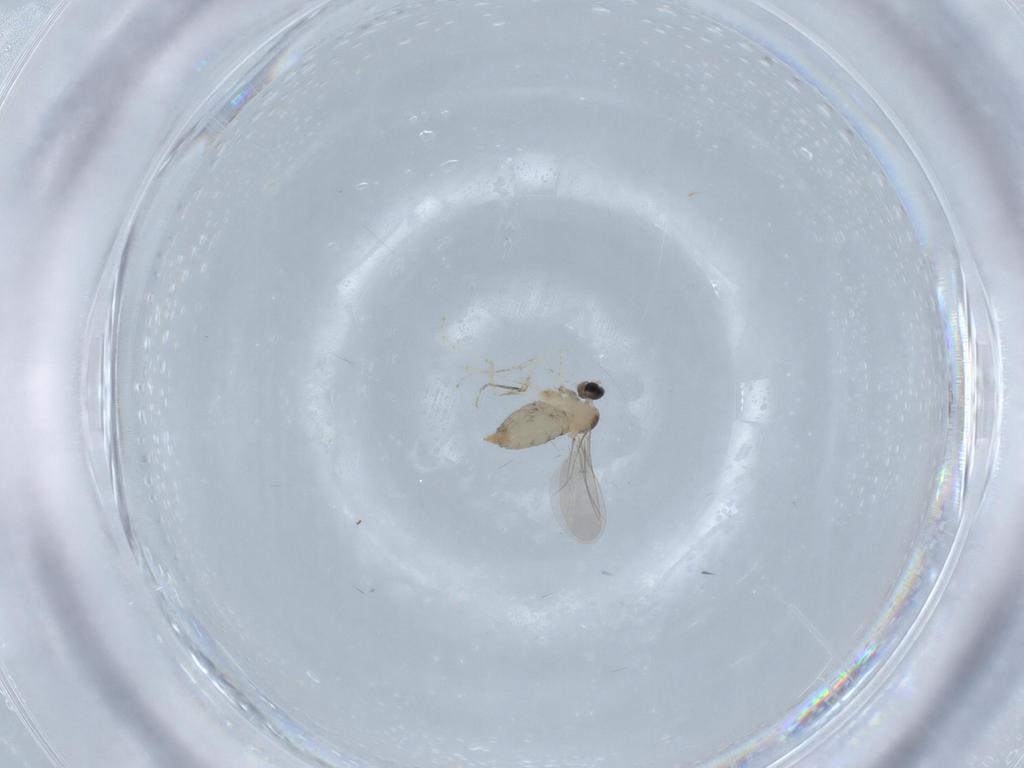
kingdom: Animalia
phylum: Arthropoda
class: Insecta
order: Diptera
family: Cecidomyiidae
